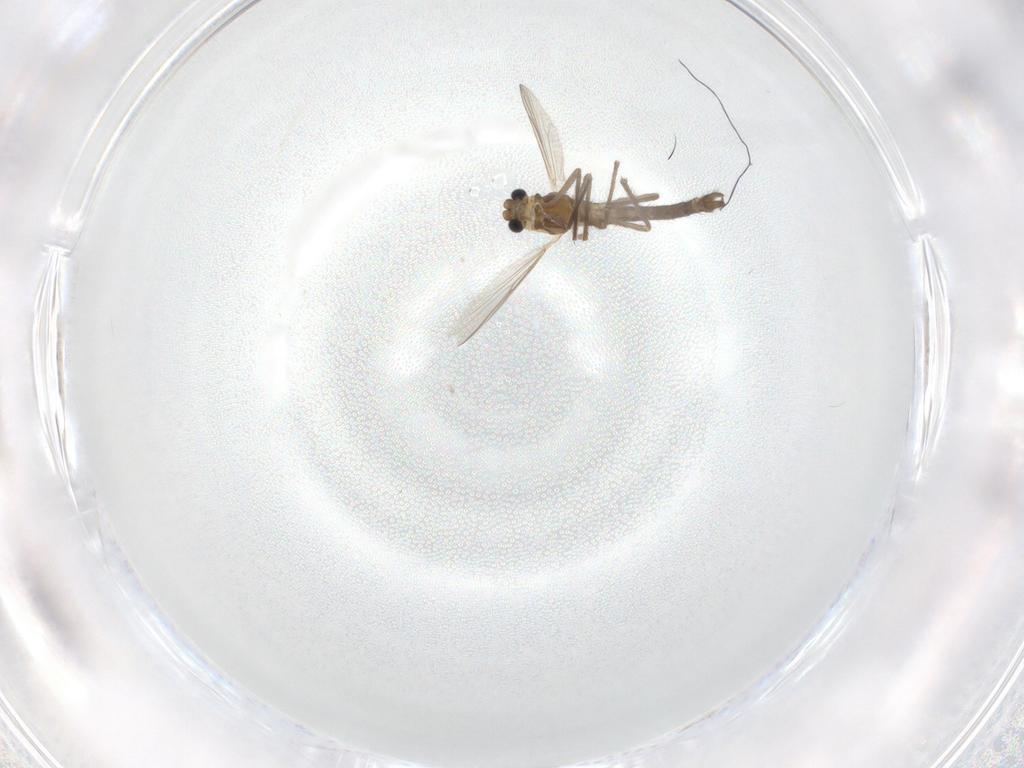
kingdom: Animalia
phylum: Arthropoda
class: Insecta
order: Diptera
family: Chironomidae
